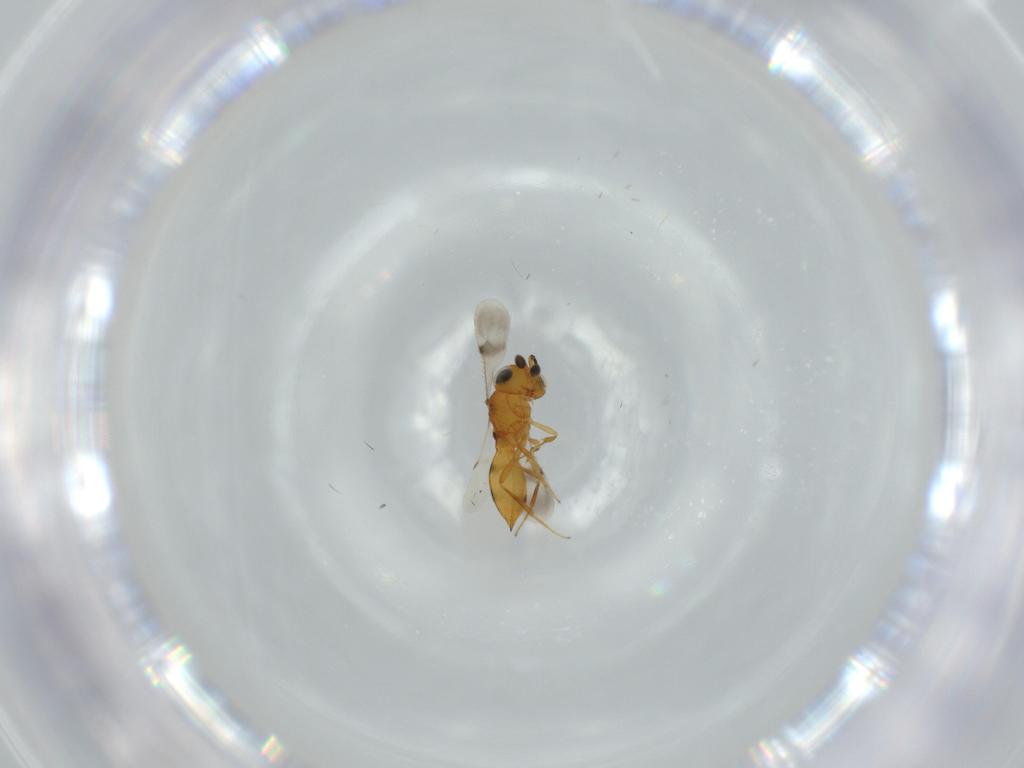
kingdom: Animalia
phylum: Arthropoda
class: Insecta
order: Hymenoptera
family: Scelionidae
